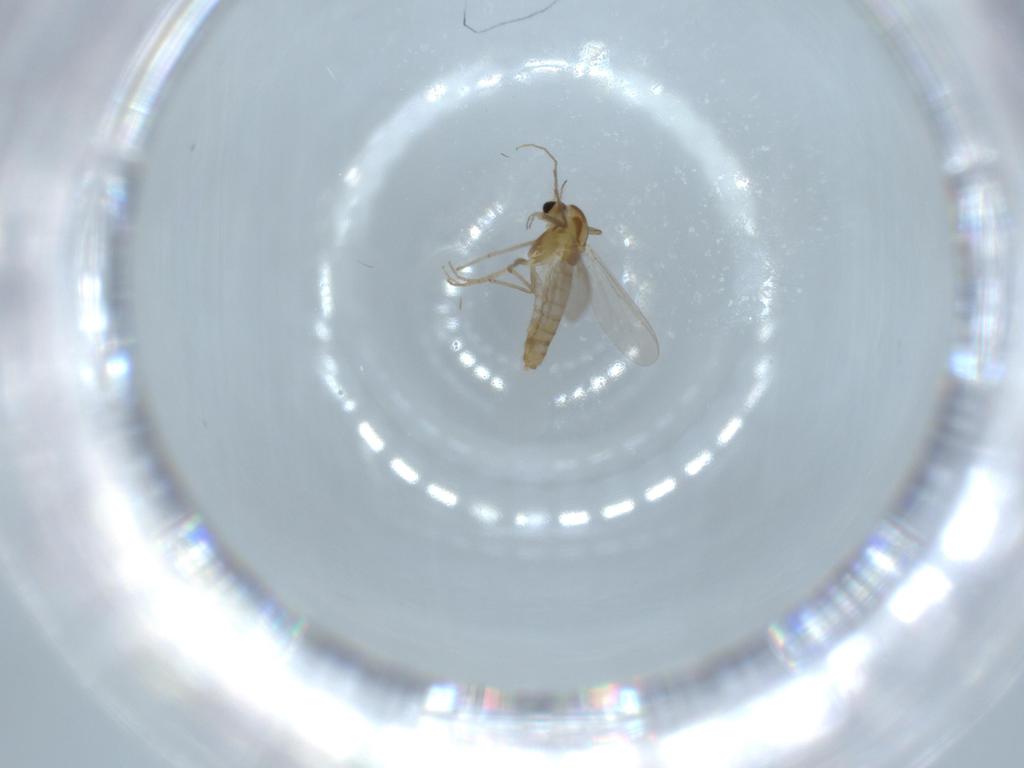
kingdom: Animalia
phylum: Arthropoda
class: Insecta
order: Diptera
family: Chironomidae
